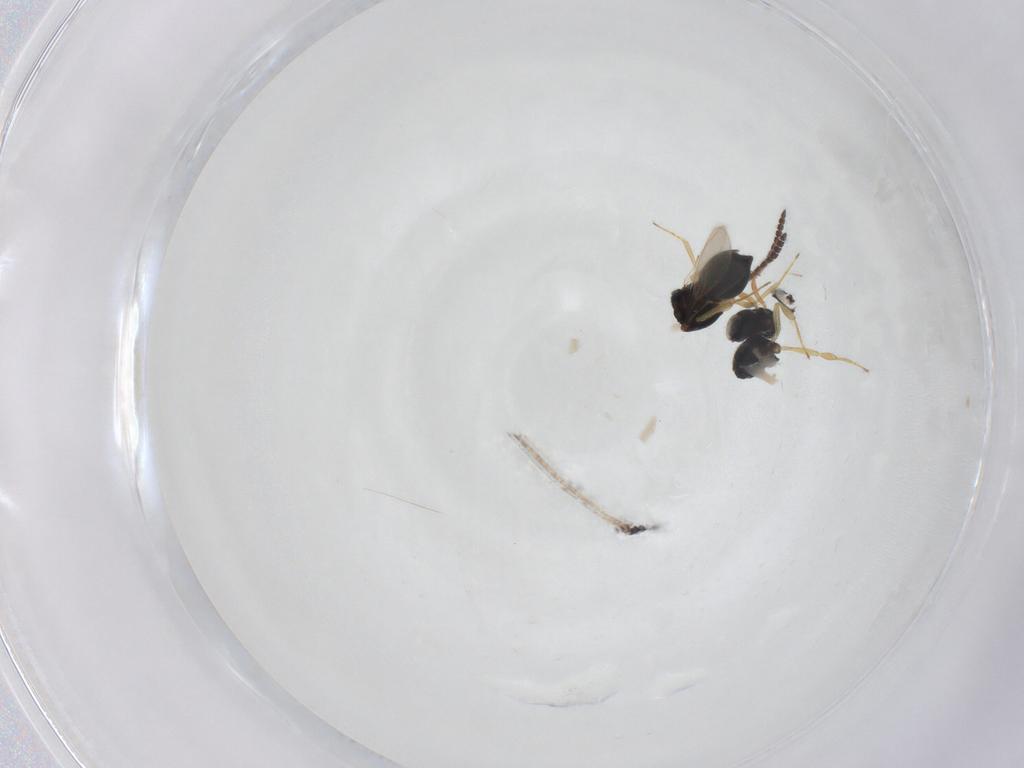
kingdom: Animalia
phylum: Arthropoda
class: Insecta
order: Hymenoptera
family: Scelionidae
